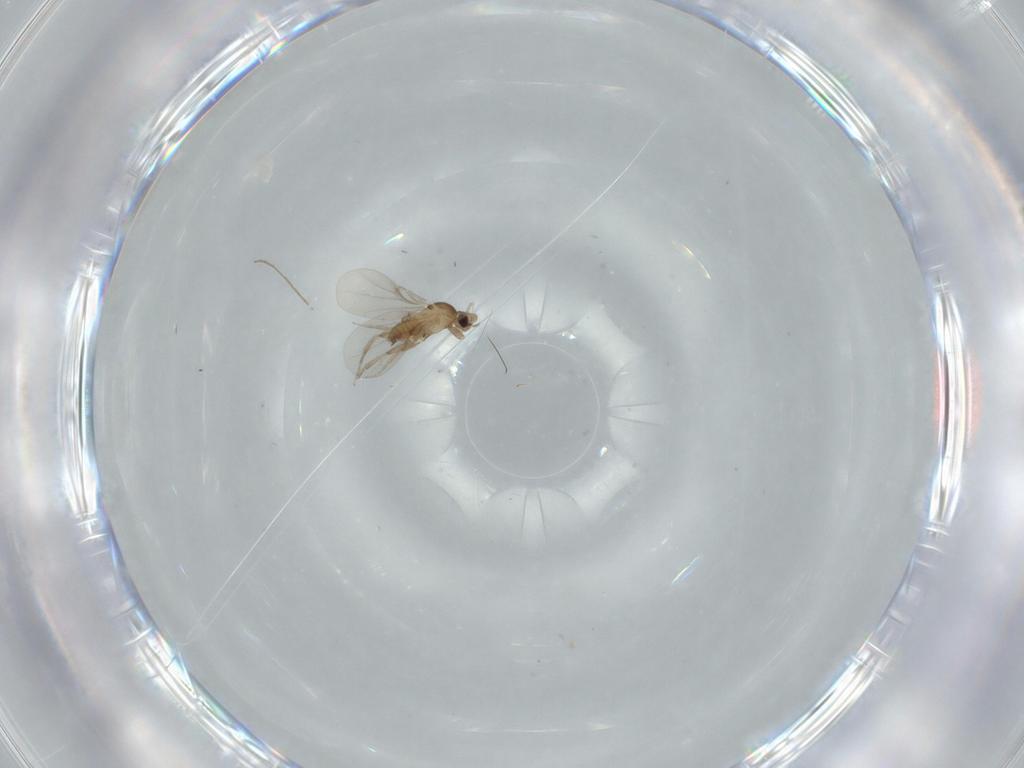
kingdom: Animalia
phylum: Arthropoda
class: Insecta
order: Diptera
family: Chironomidae
